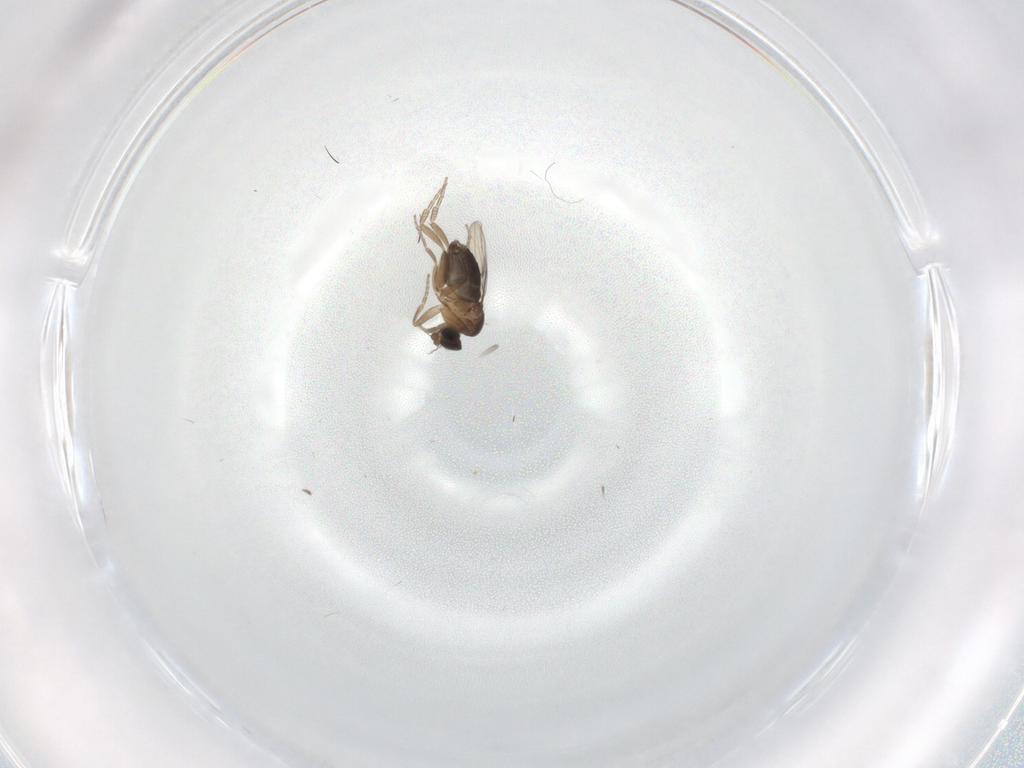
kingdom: Animalia
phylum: Arthropoda
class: Insecta
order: Diptera
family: Phoridae
